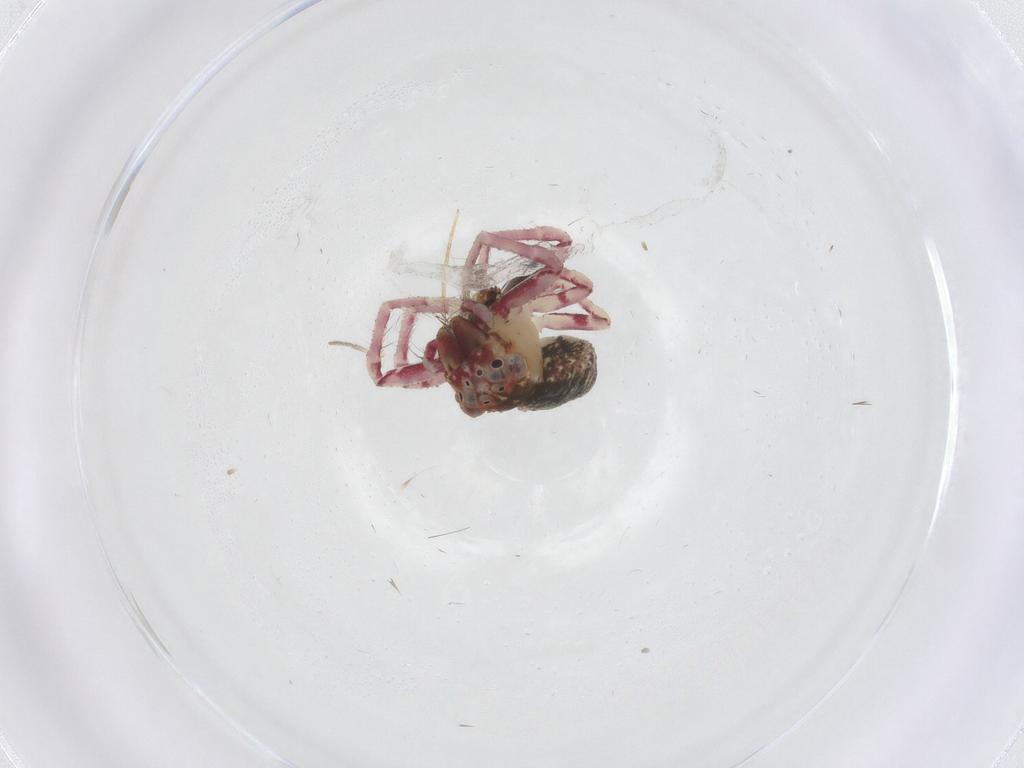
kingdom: Animalia
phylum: Arthropoda
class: Arachnida
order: Araneae
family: Thomisidae
